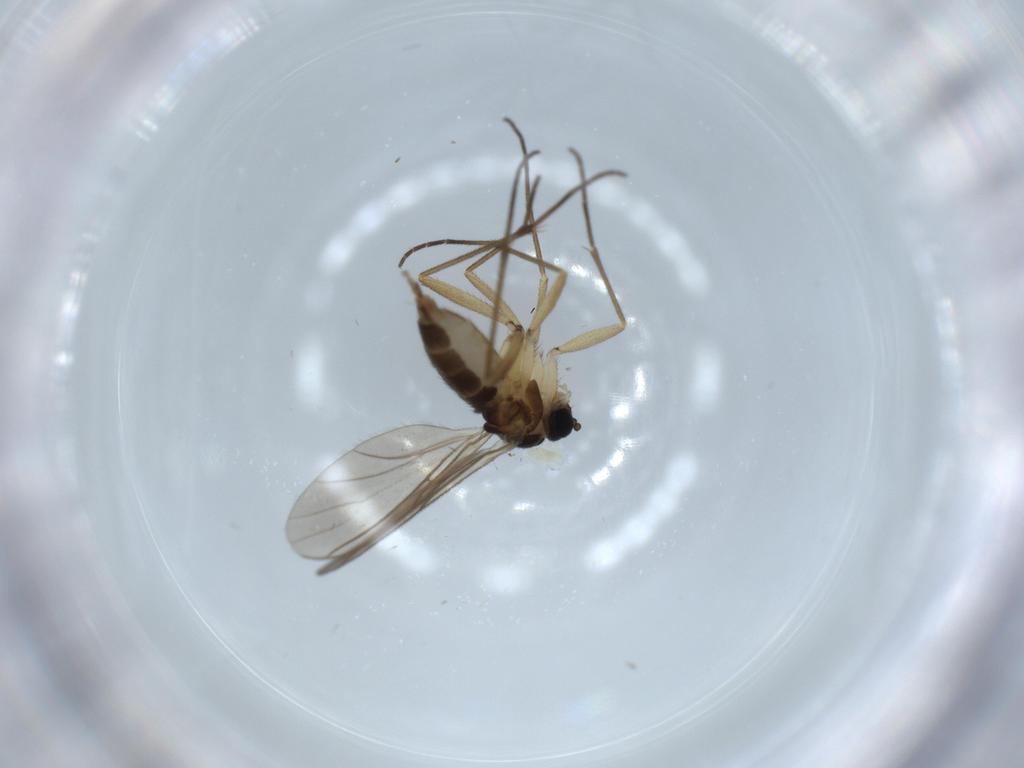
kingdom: Animalia
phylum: Arthropoda
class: Insecta
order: Diptera
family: Sciaridae
